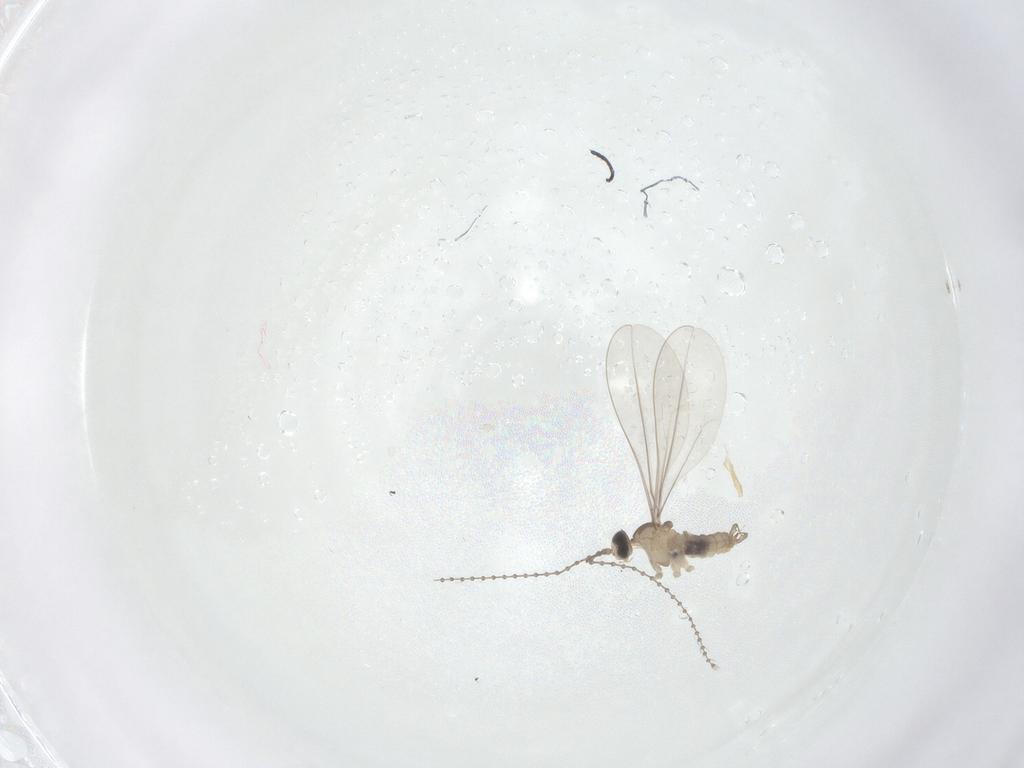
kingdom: Animalia
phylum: Arthropoda
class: Insecta
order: Diptera
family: Cecidomyiidae
